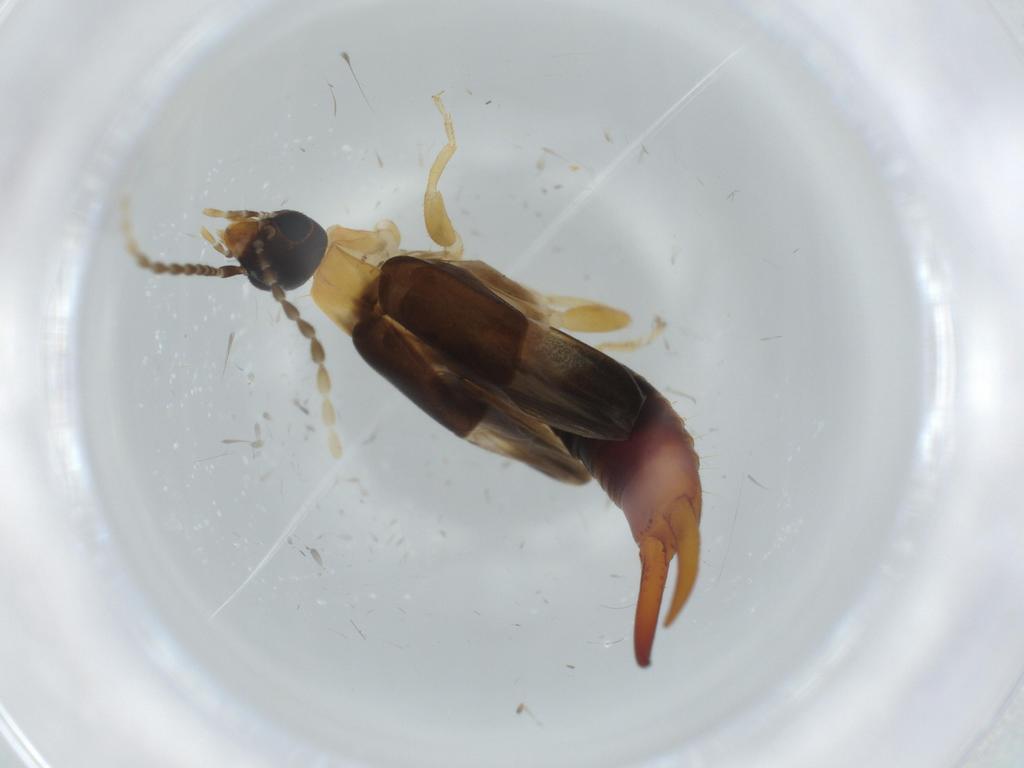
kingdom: Animalia
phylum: Arthropoda
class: Insecta
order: Dermaptera
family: Labiduridae
